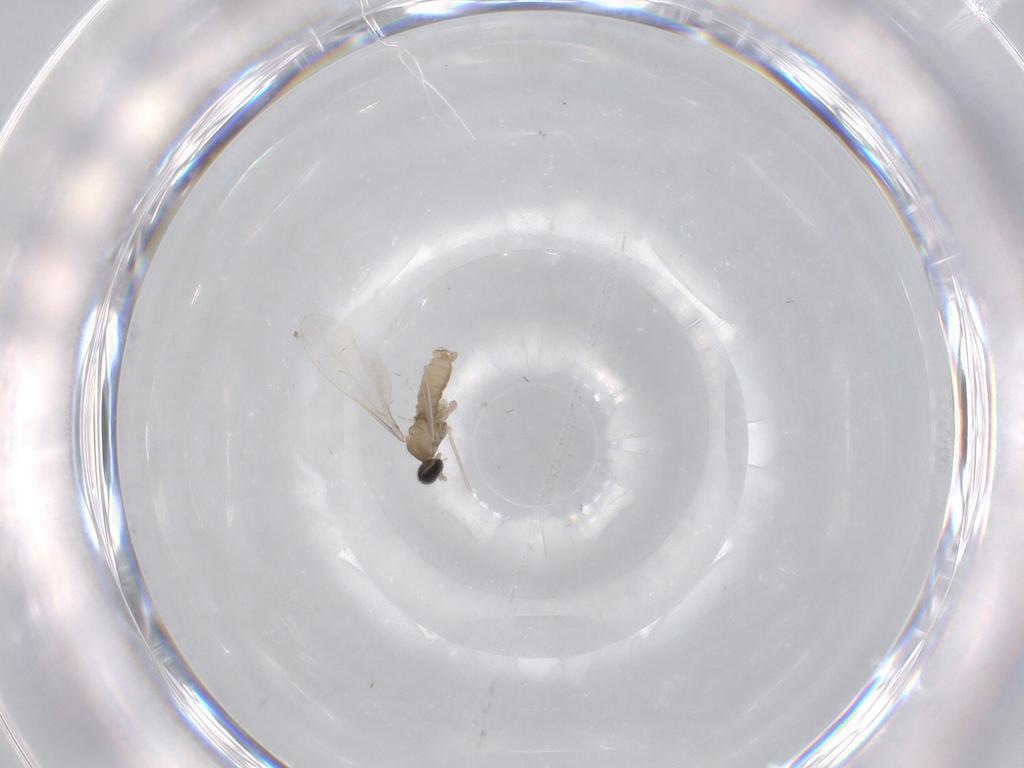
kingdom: Animalia
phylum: Arthropoda
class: Insecta
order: Diptera
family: Cecidomyiidae
